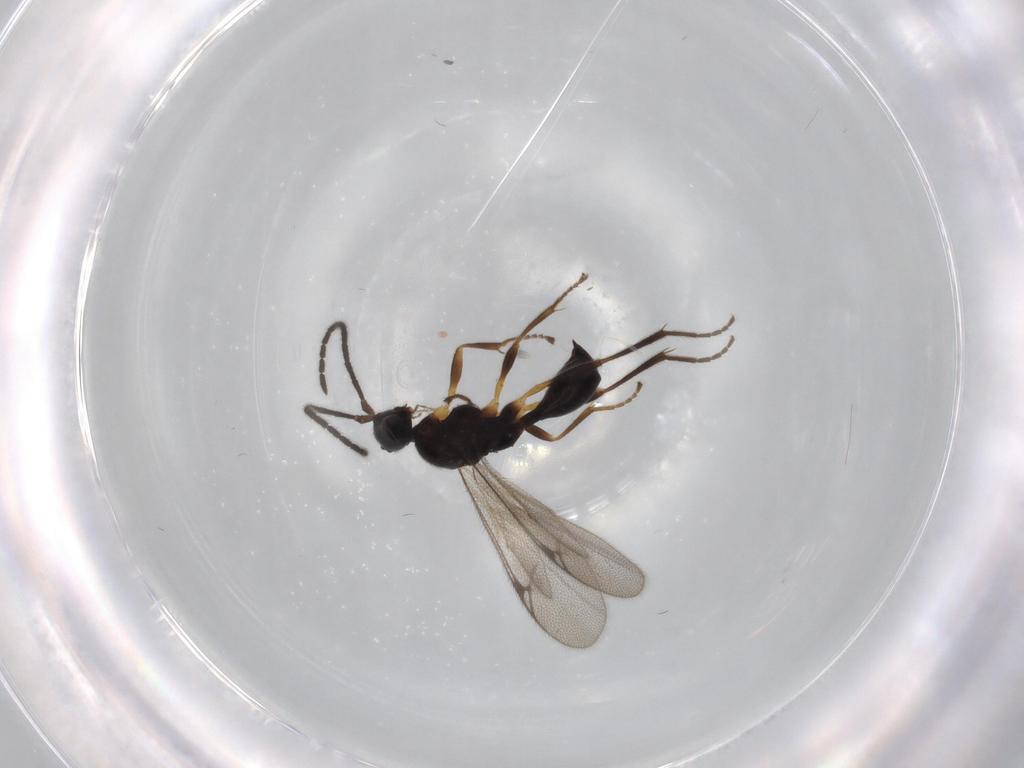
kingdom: Animalia
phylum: Arthropoda
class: Insecta
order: Hymenoptera
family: Proctotrupidae
